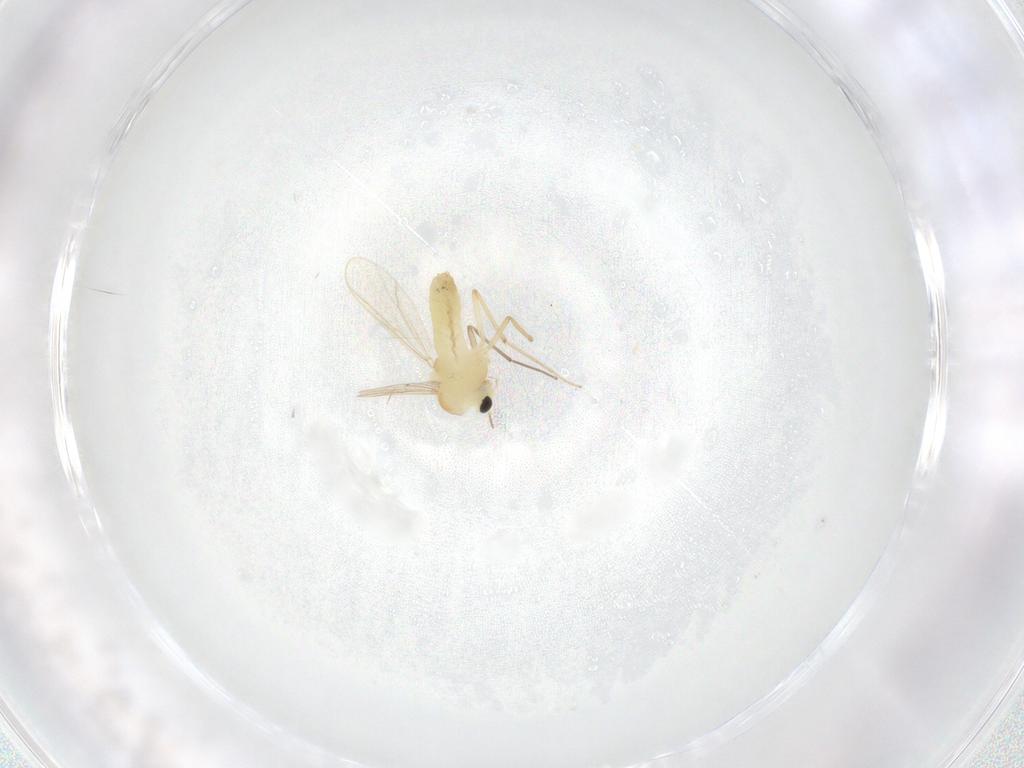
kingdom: Animalia
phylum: Arthropoda
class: Insecta
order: Diptera
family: Chironomidae
